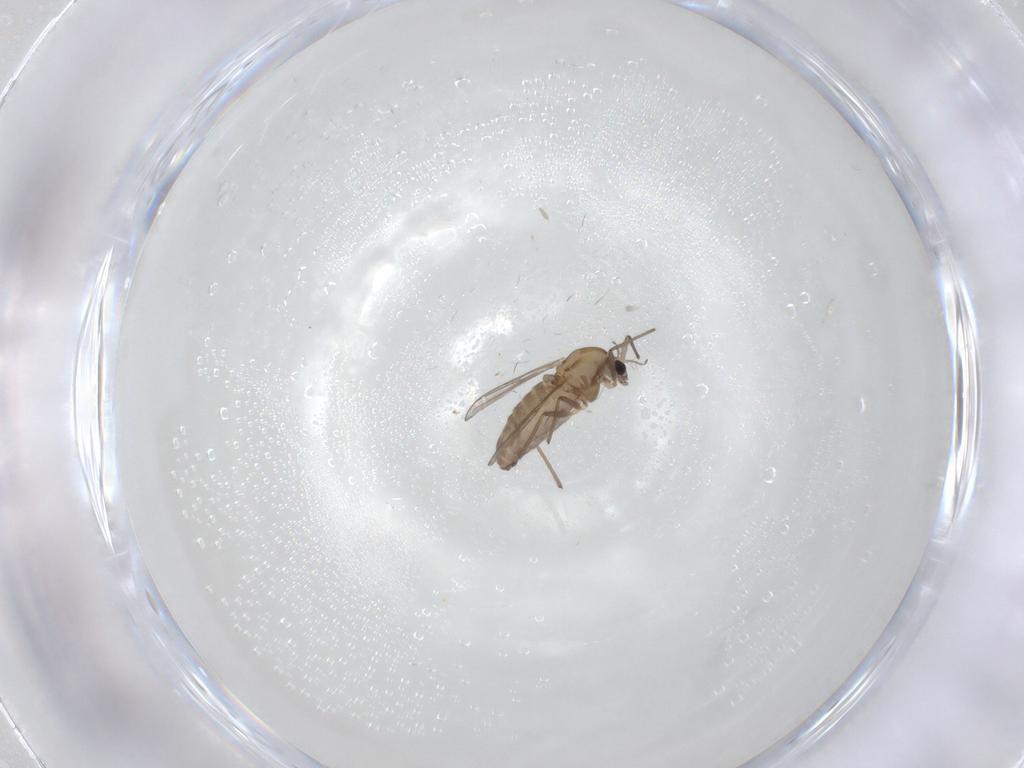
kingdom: Animalia
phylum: Arthropoda
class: Insecta
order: Diptera
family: Chironomidae
